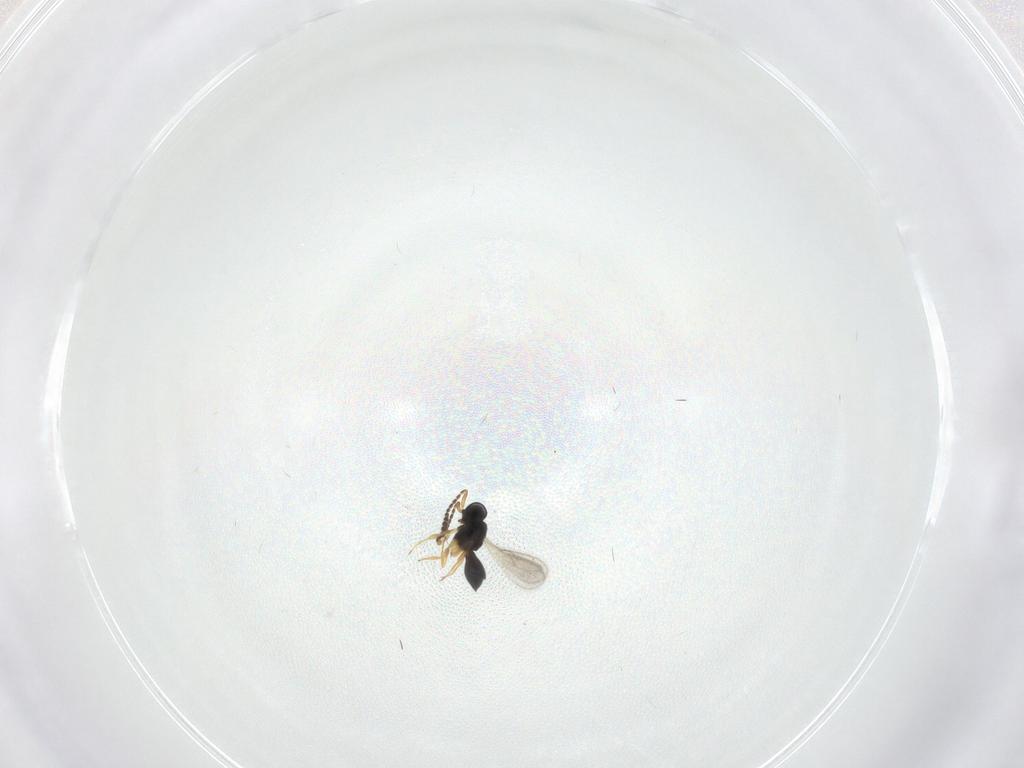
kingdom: Animalia
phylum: Arthropoda
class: Insecta
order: Hymenoptera
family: Scelionidae
